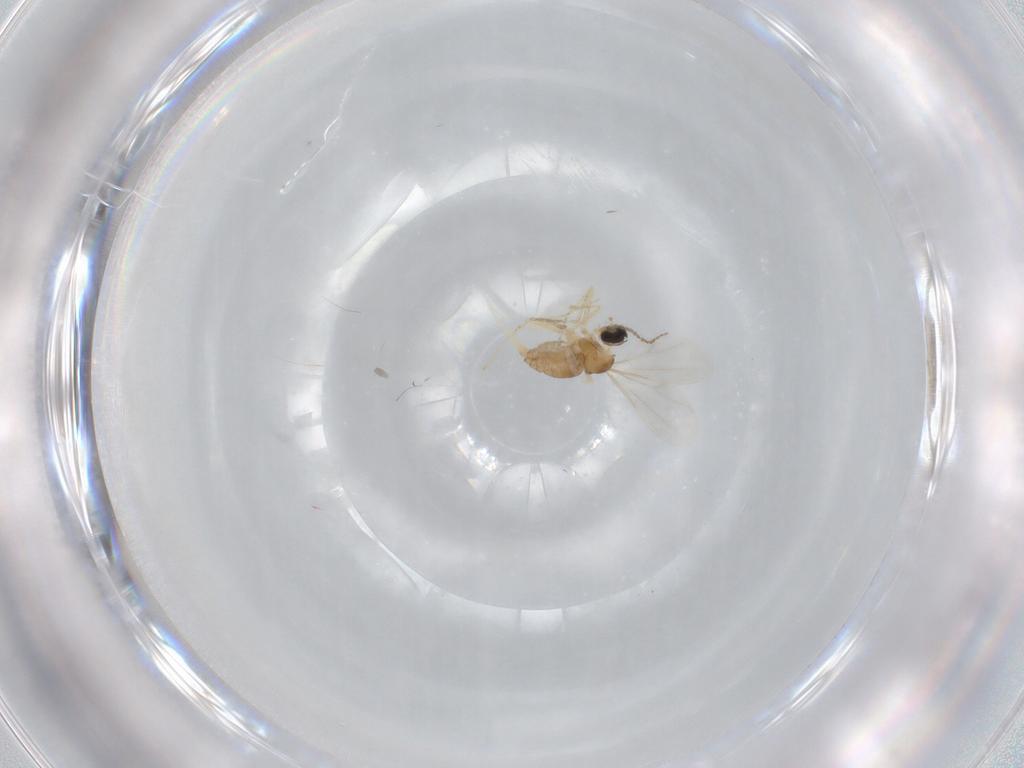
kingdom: Animalia
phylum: Arthropoda
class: Insecta
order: Diptera
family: Cecidomyiidae
